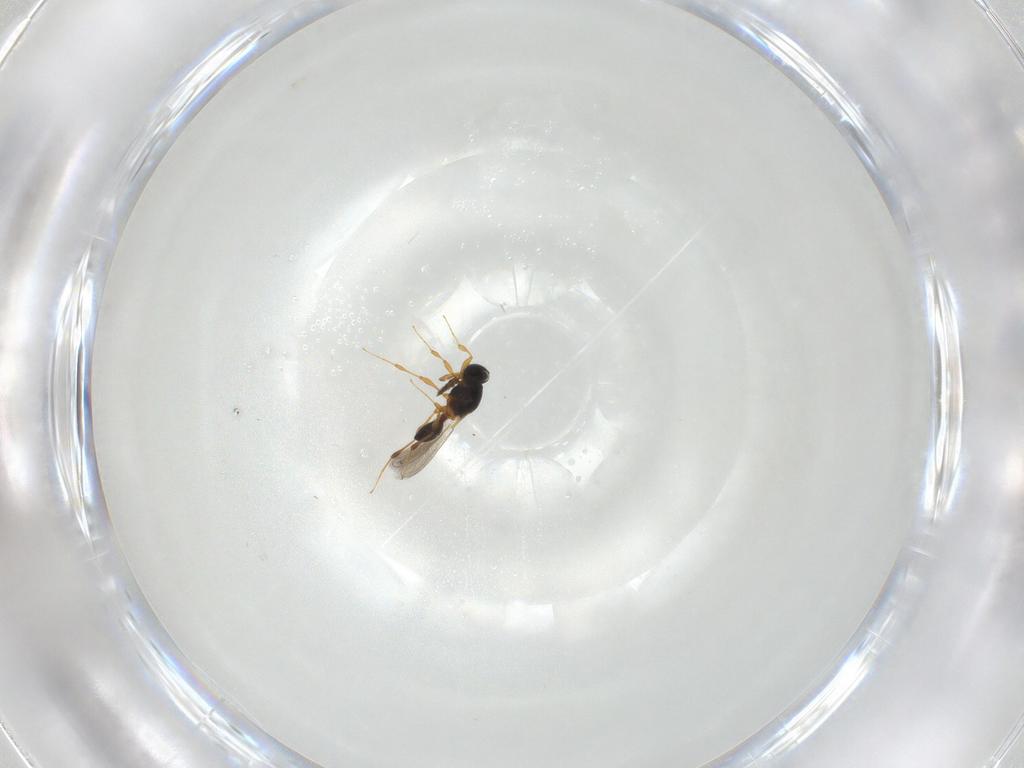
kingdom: Animalia
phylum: Arthropoda
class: Insecta
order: Hymenoptera
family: Platygastridae
